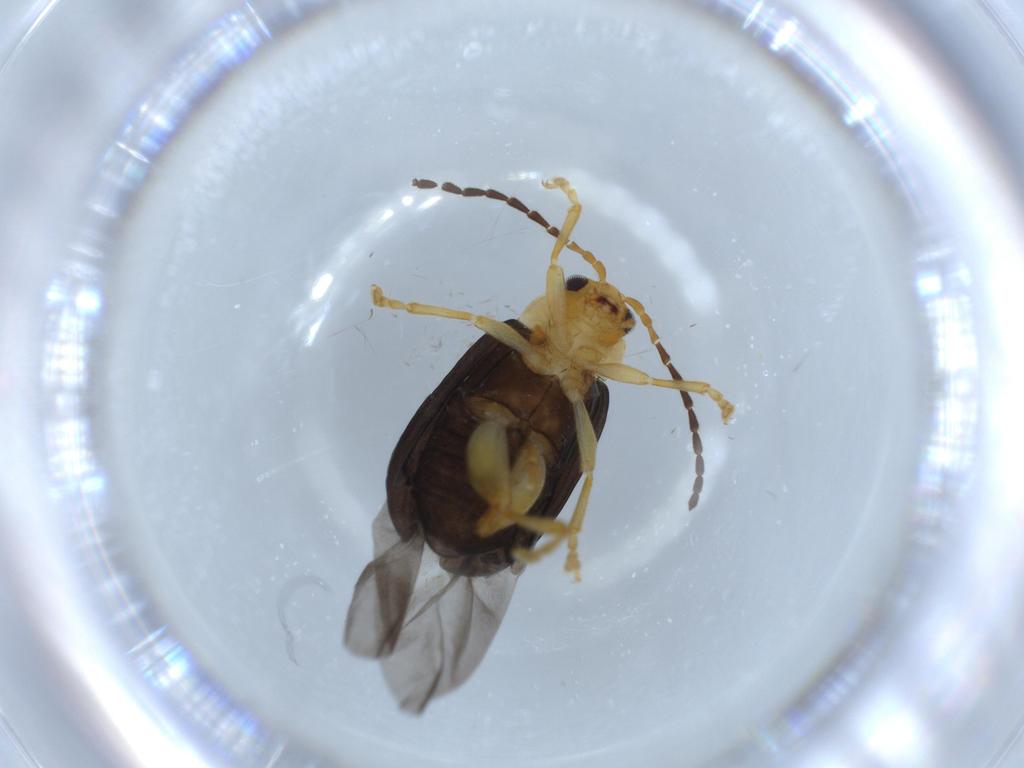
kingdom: Animalia
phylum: Arthropoda
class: Insecta
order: Coleoptera
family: Chrysomelidae
